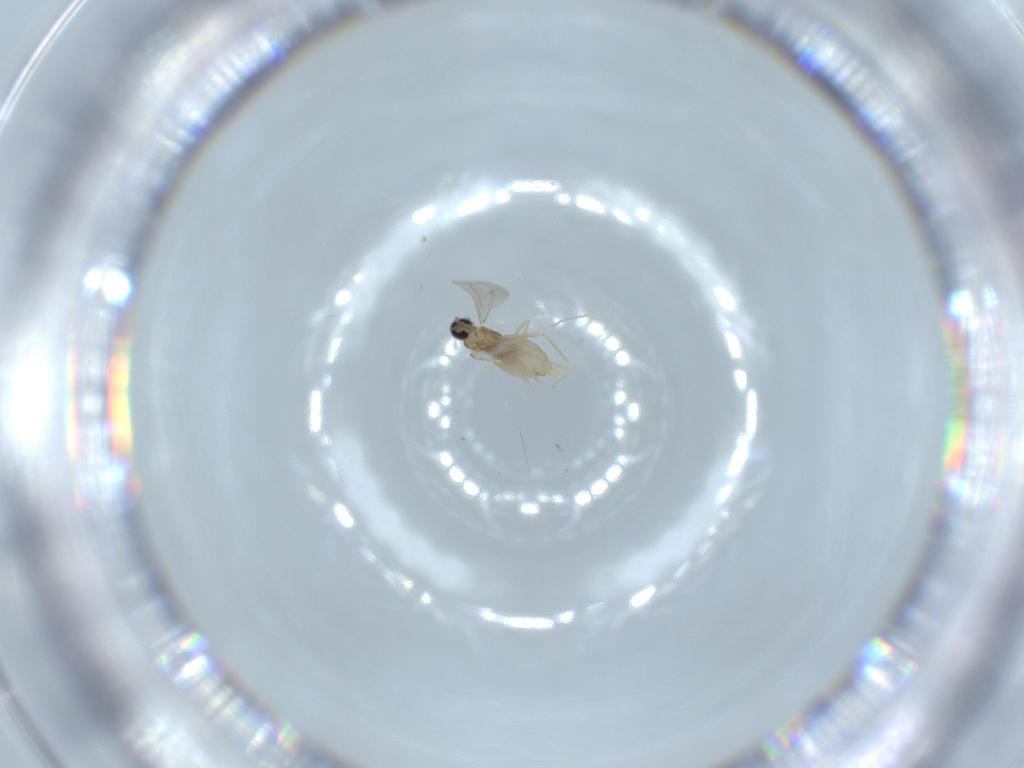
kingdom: Animalia
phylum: Arthropoda
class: Insecta
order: Diptera
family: Cecidomyiidae
